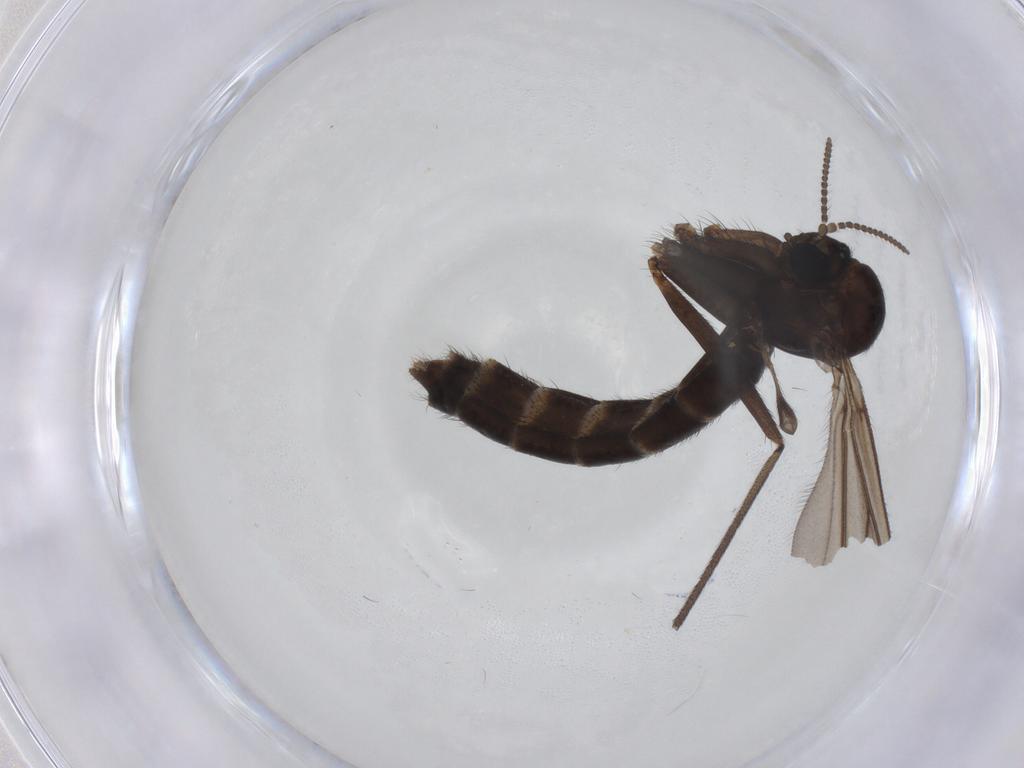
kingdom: Animalia
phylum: Arthropoda
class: Insecta
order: Diptera
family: Ditomyiidae
